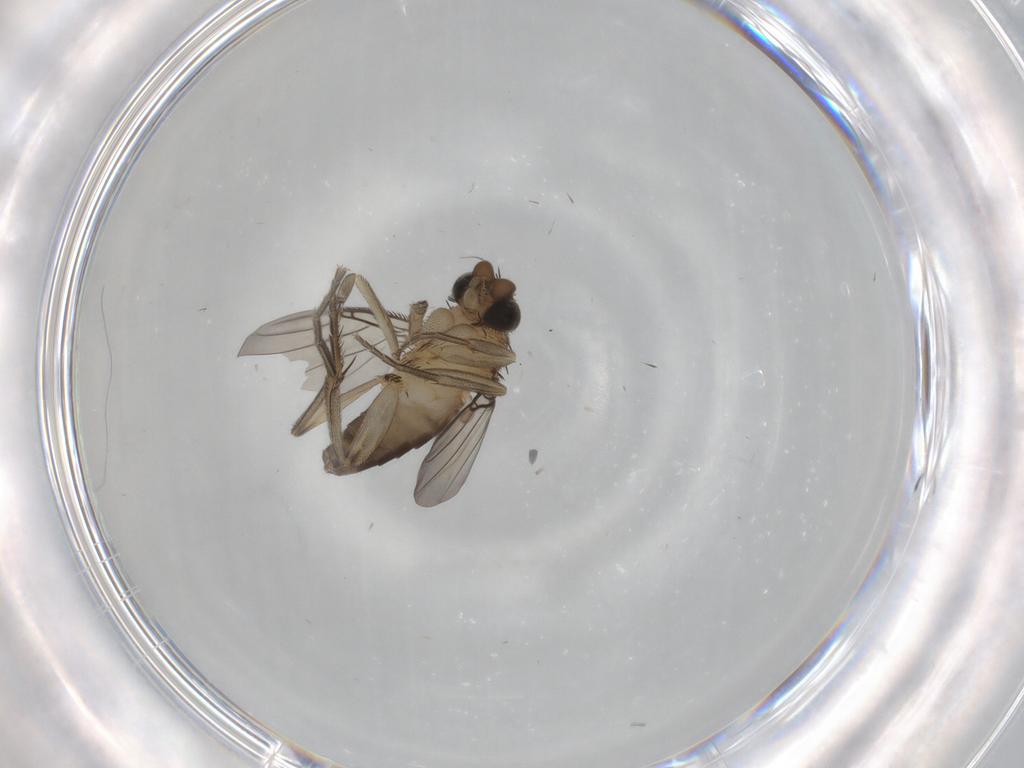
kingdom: Animalia
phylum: Arthropoda
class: Insecta
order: Diptera
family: Phoridae
